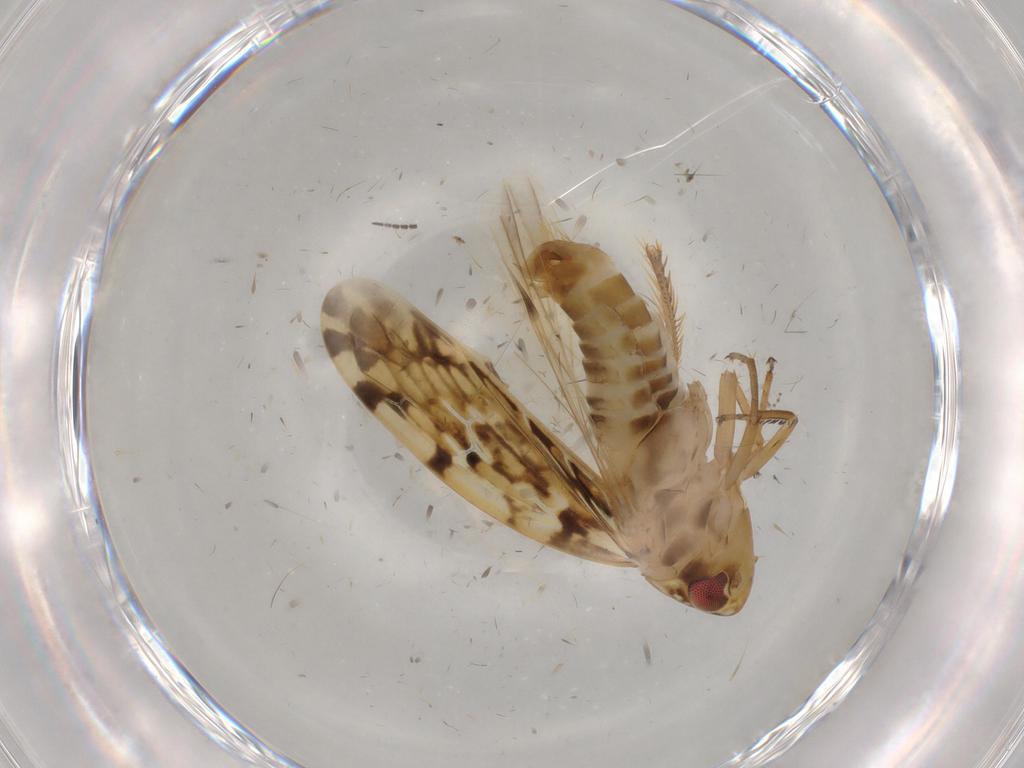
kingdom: Animalia
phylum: Arthropoda
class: Insecta
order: Hemiptera
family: Cicadellidae
